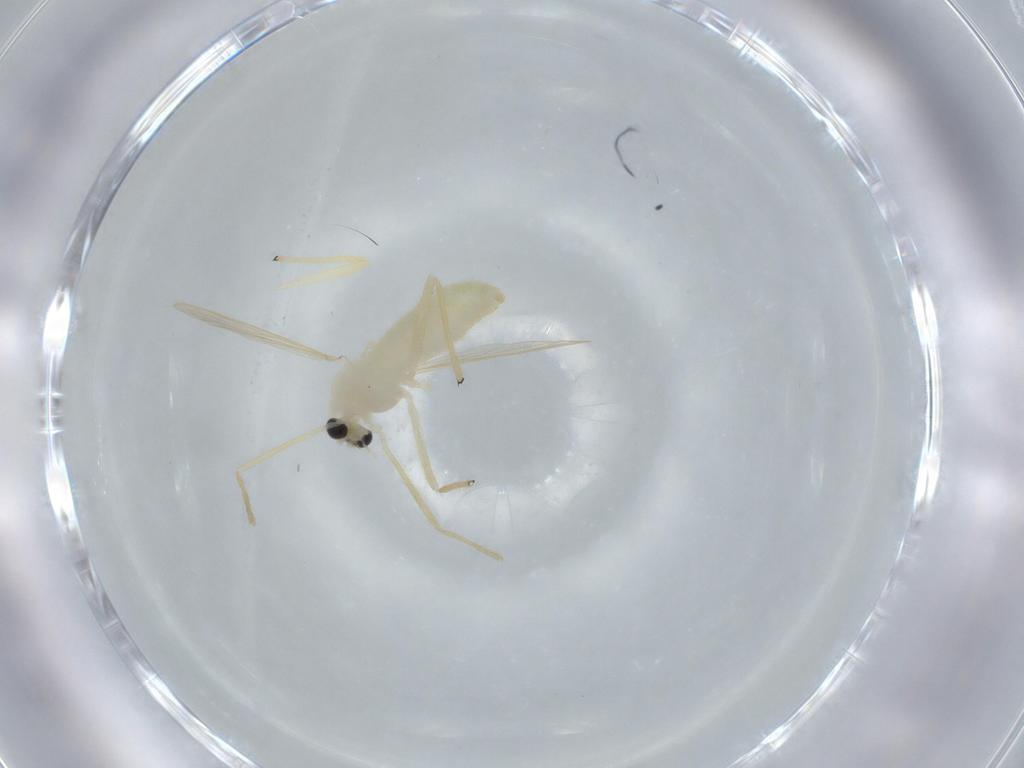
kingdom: Animalia
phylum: Arthropoda
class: Insecta
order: Diptera
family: Chironomidae
